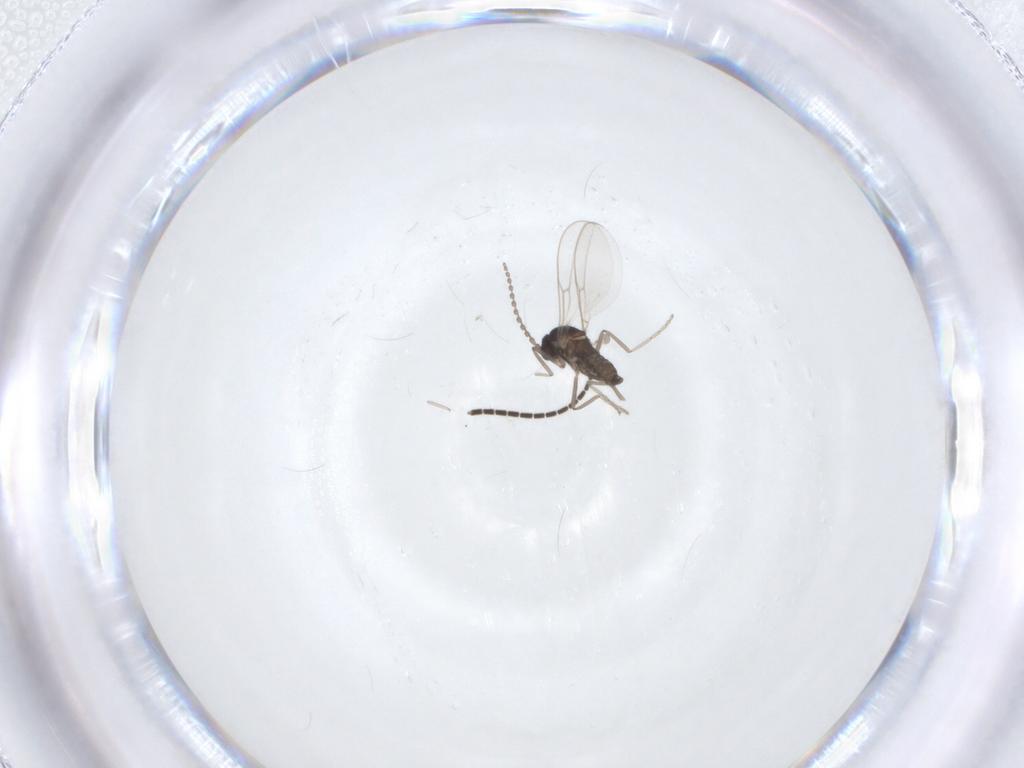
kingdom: Animalia
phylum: Arthropoda
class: Insecta
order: Diptera
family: Cecidomyiidae
